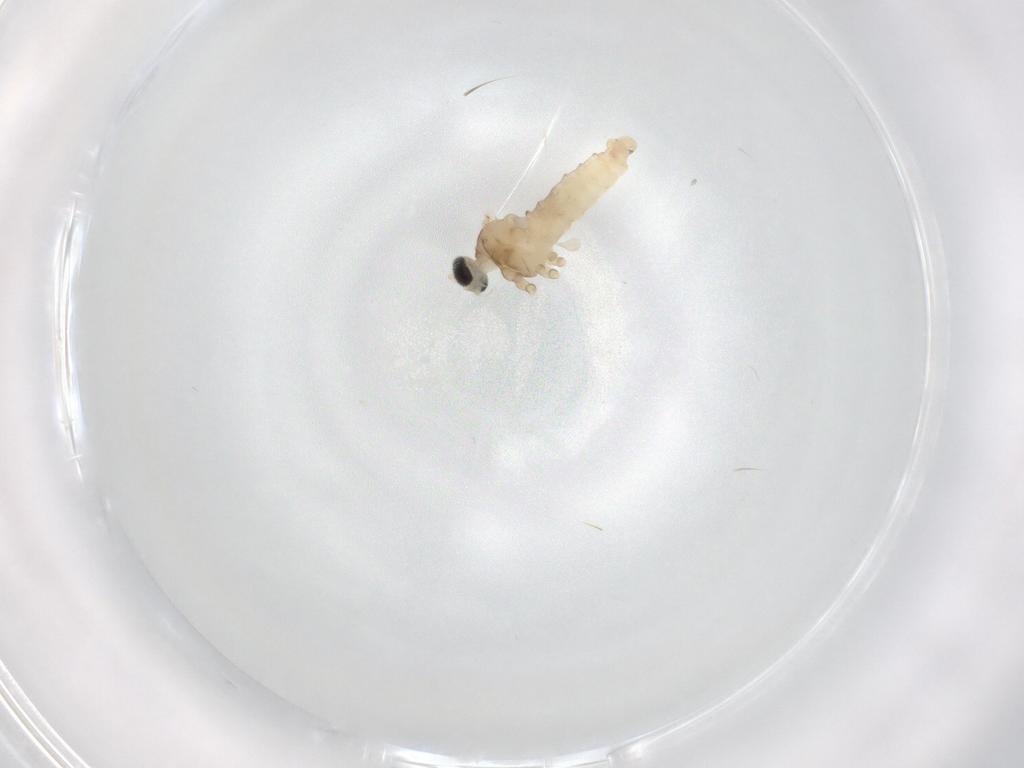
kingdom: Animalia
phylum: Arthropoda
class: Insecta
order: Diptera
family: Cecidomyiidae
